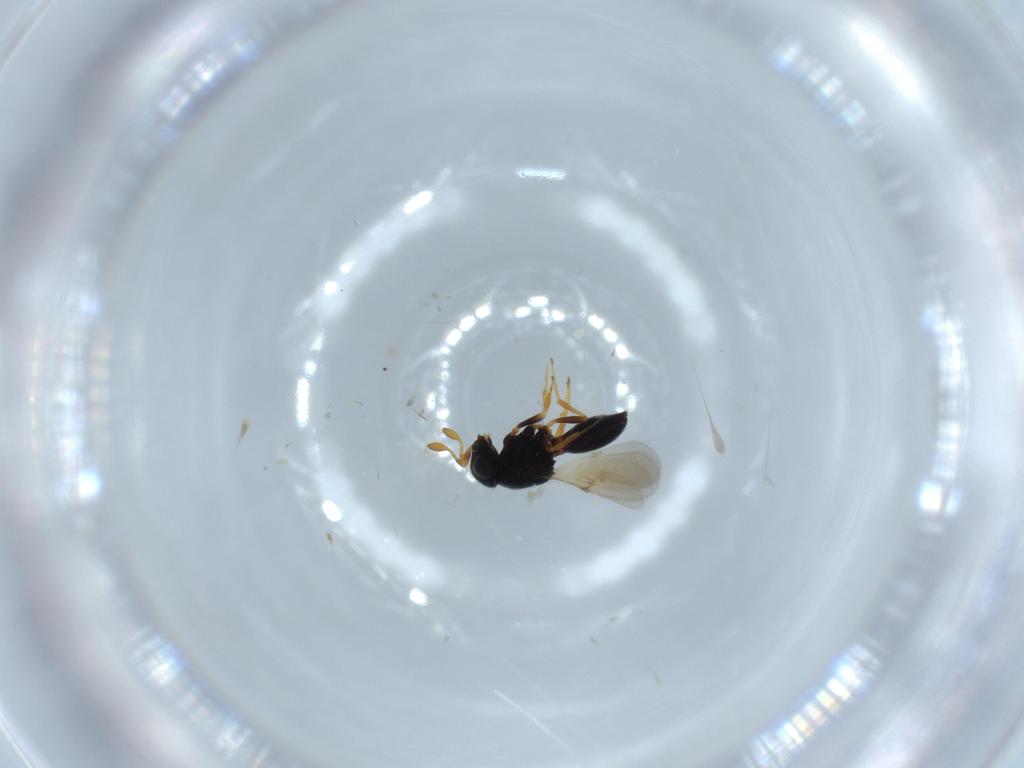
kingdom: Animalia
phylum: Arthropoda
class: Insecta
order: Hymenoptera
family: Scelionidae
